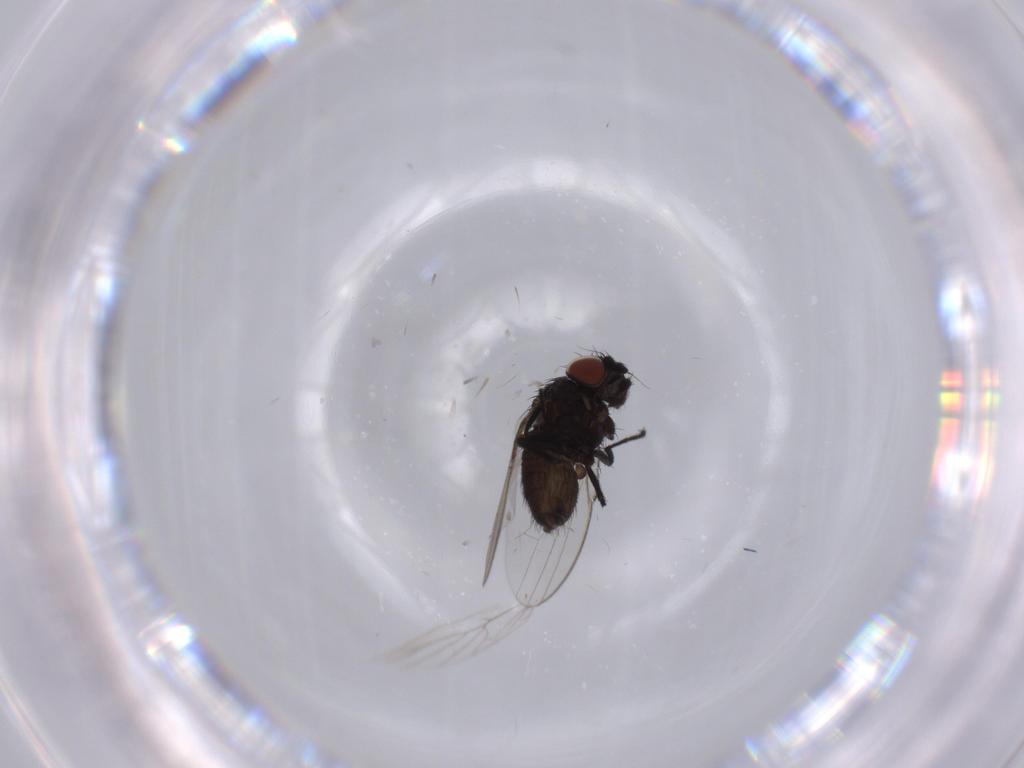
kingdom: Animalia
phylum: Arthropoda
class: Insecta
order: Diptera
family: Milichiidae
